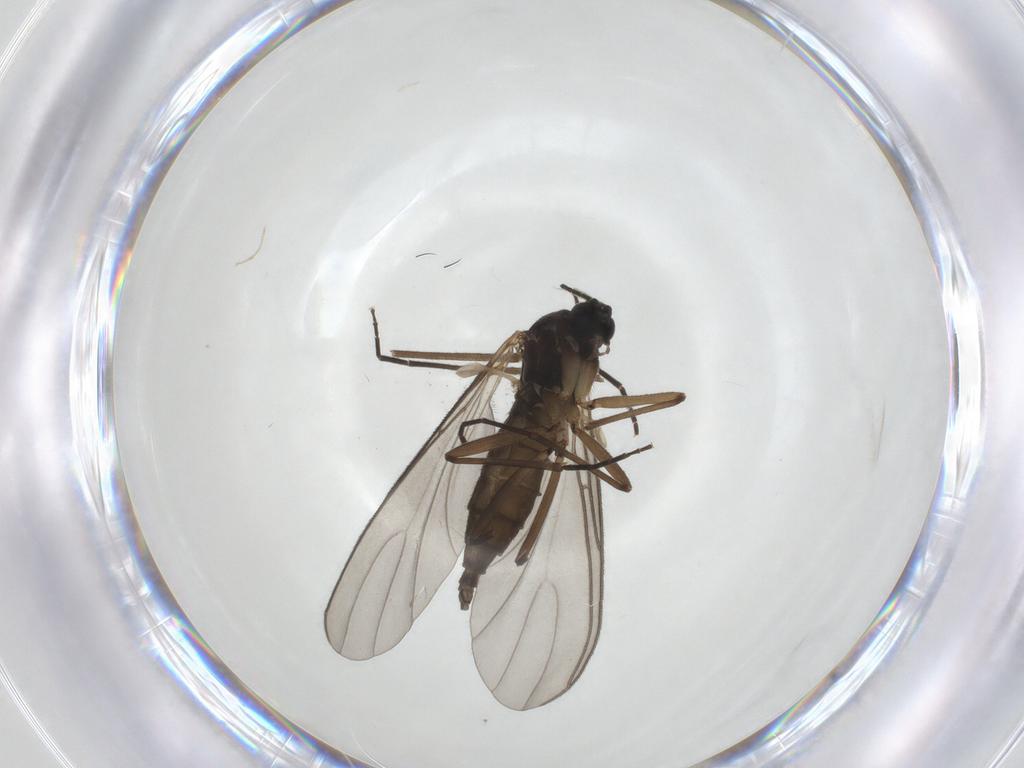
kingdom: Animalia
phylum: Arthropoda
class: Insecta
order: Diptera
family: Sciaridae
